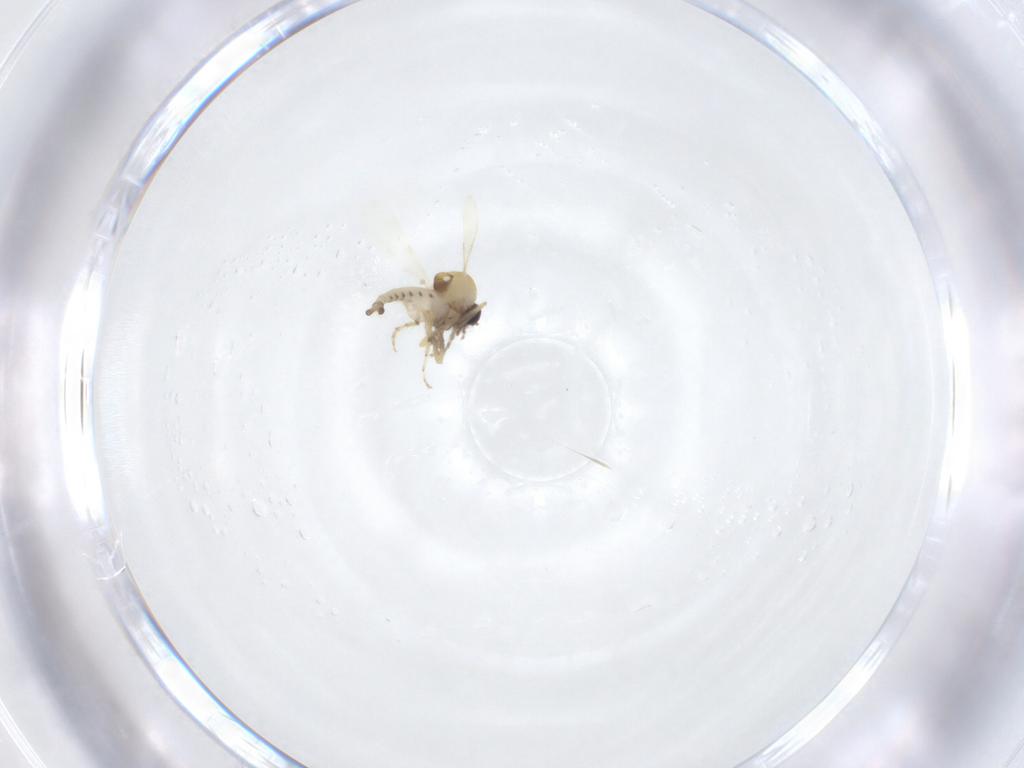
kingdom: Animalia
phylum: Arthropoda
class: Insecta
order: Diptera
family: Ceratopogonidae
